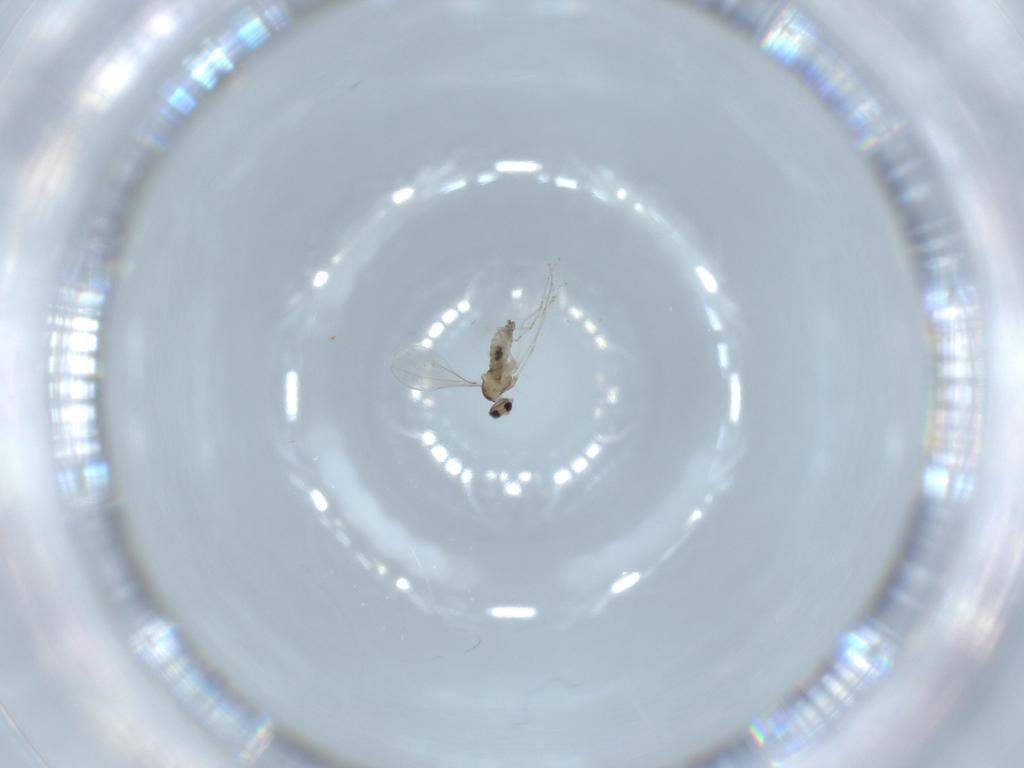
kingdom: Animalia
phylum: Arthropoda
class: Insecta
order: Diptera
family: Cecidomyiidae
